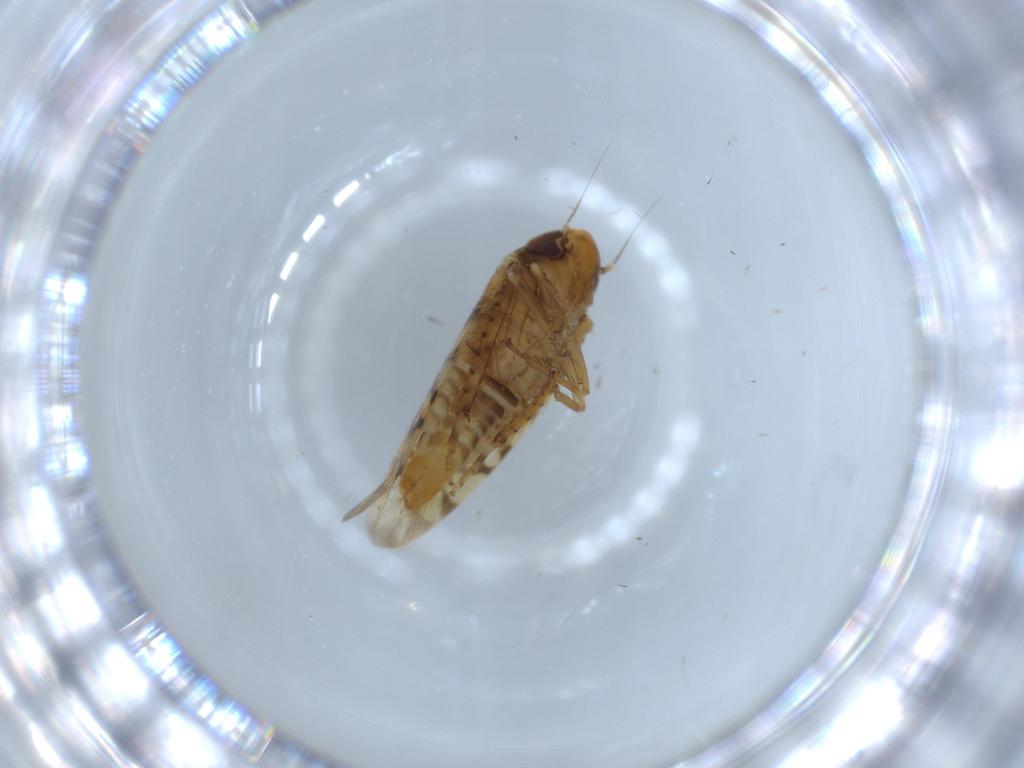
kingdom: Animalia
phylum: Arthropoda
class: Insecta
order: Hemiptera
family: Cicadellidae
